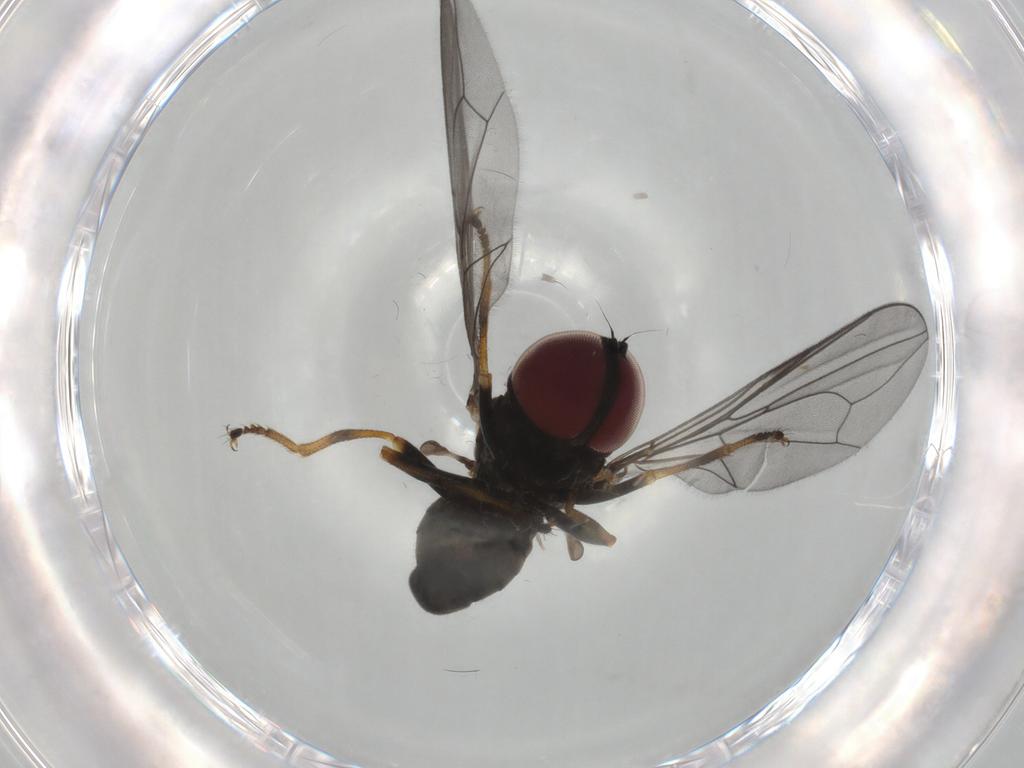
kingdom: Animalia
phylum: Arthropoda
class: Insecta
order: Diptera
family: Pipunculidae
